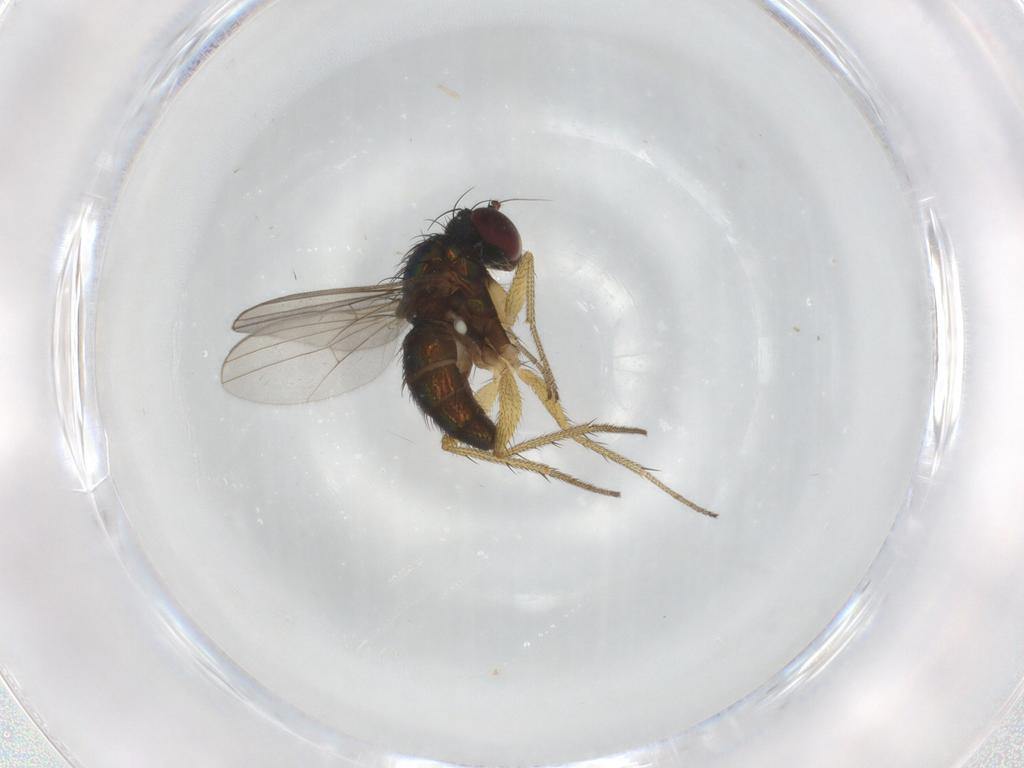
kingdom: Animalia
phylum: Arthropoda
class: Insecta
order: Diptera
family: Dolichopodidae
